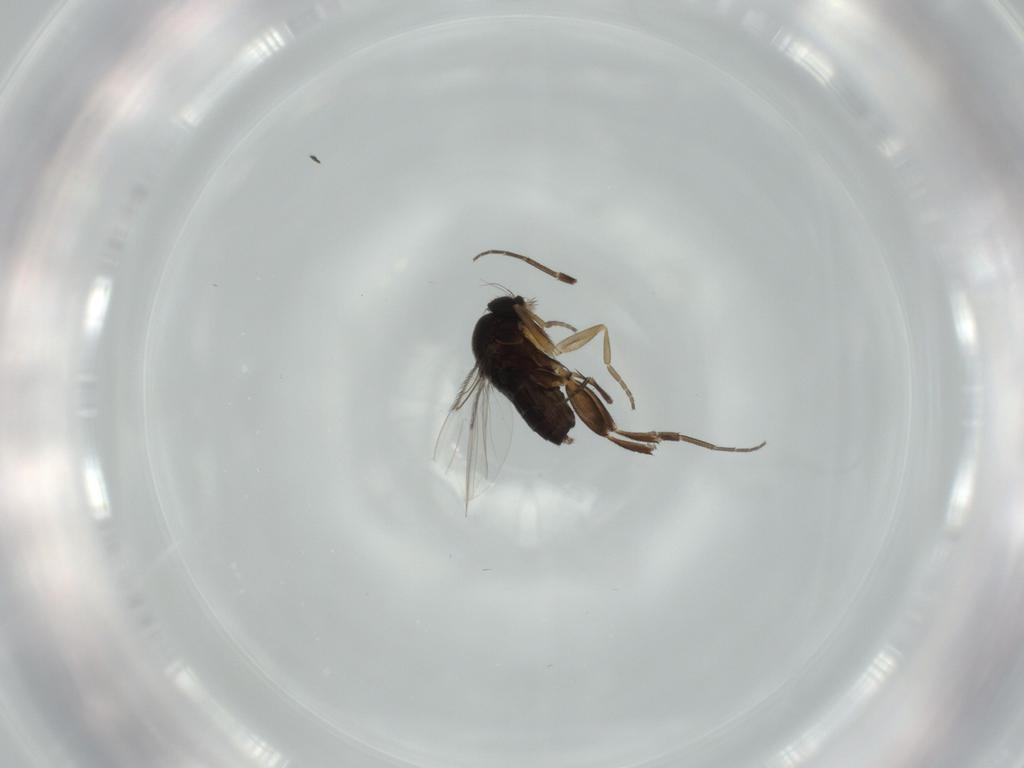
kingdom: Animalia
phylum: Arthropoda
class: Insecta
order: Diptera
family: Phoridae
